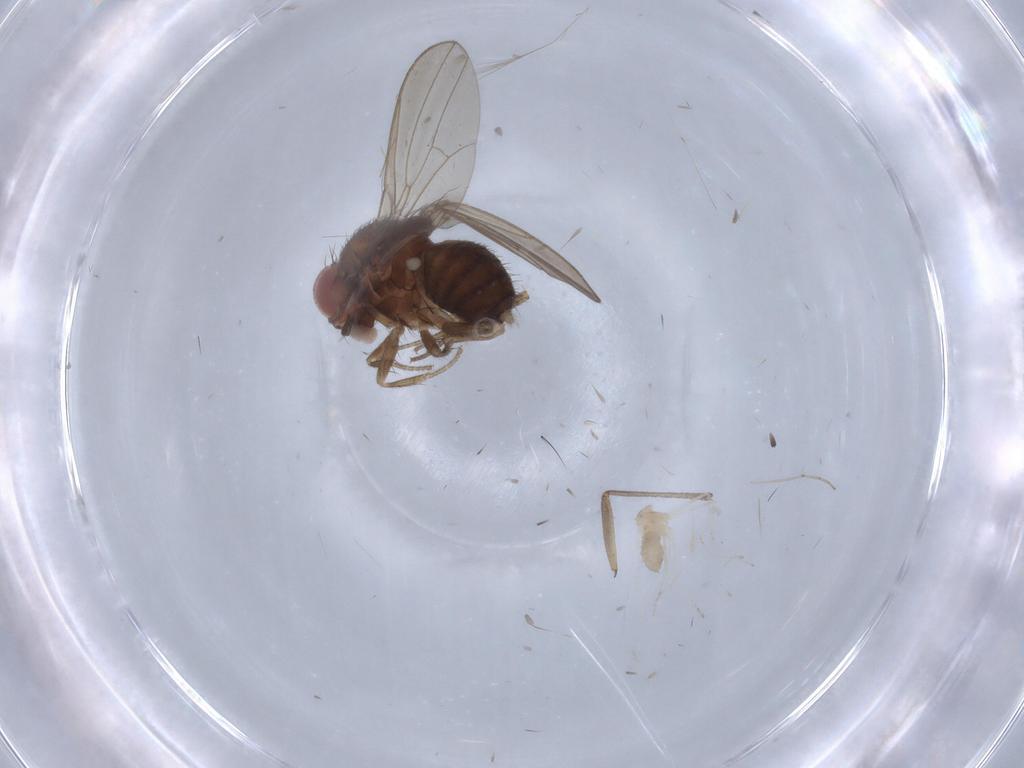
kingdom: Animalia
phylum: Arthropoda
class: Insecta
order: Diptera
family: Cecidomyiidae
